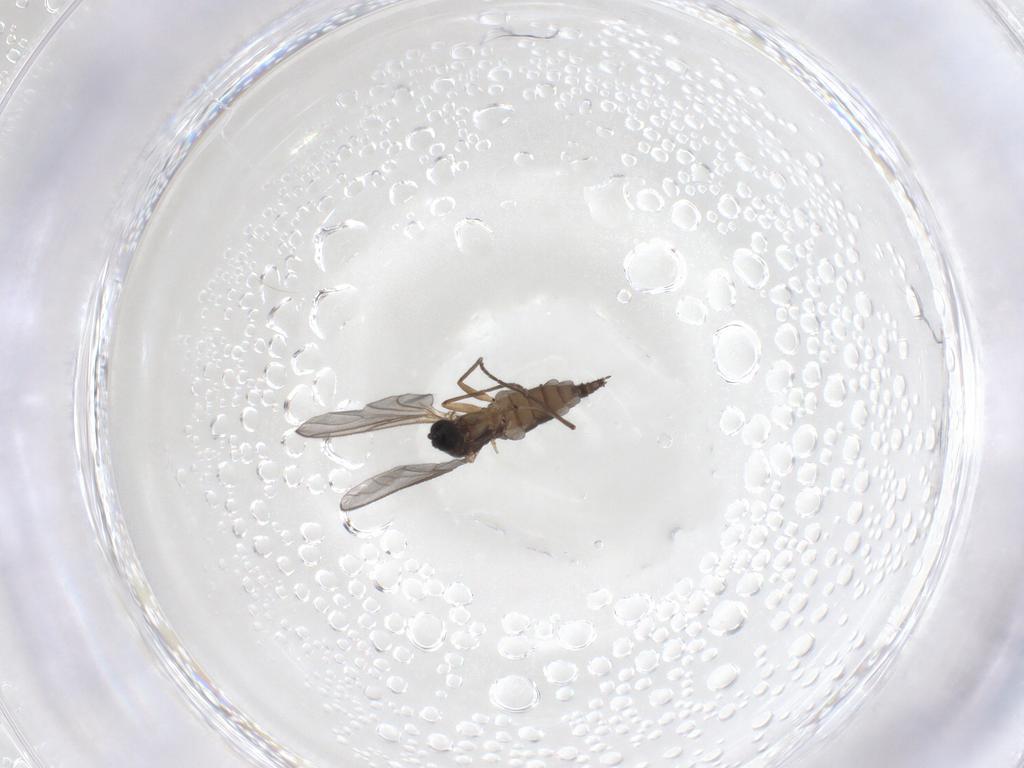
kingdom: Animalia
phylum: Arthropoda
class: Insecta
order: Diptera
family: Sciaridae
